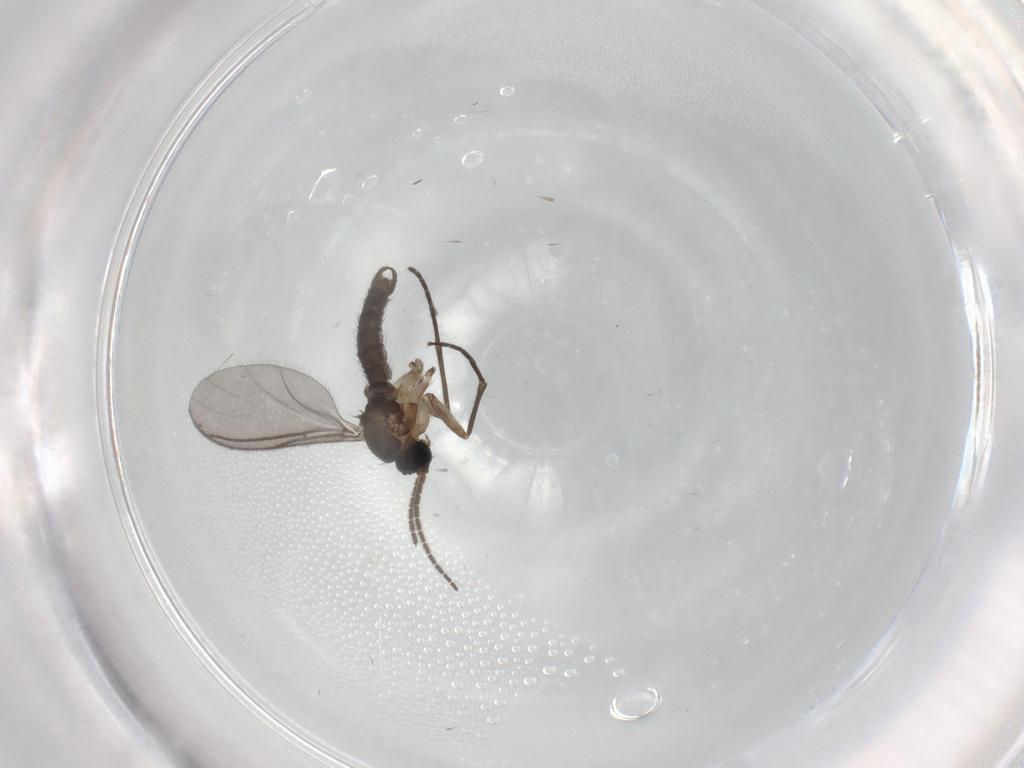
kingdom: Animalia
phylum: Arthropoda
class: Insecta
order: Diptera
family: Sciaridae
